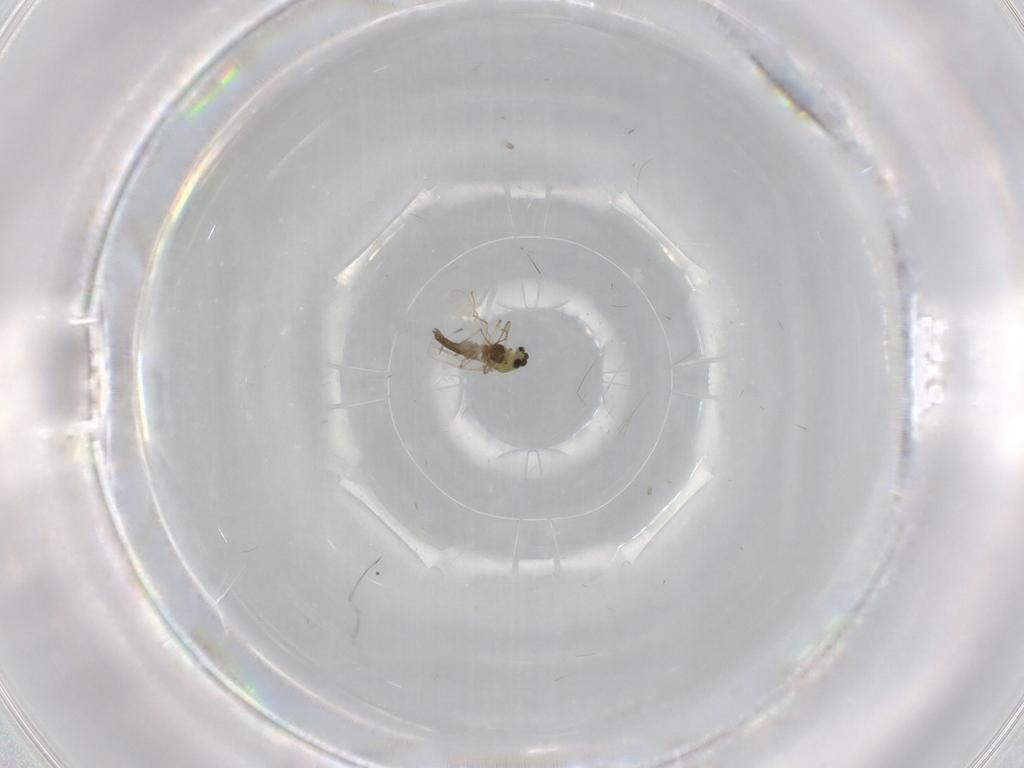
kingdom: Animalia
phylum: Arthropoda
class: Insecta
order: Diptera
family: Chironomidae
